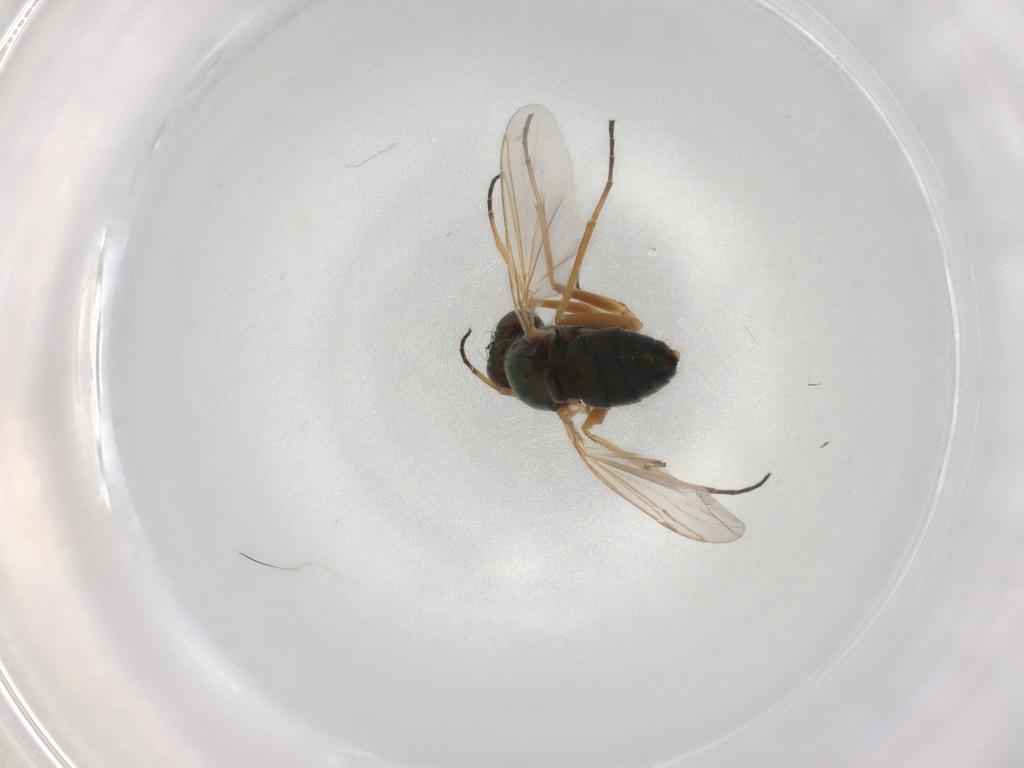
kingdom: Animalia
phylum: Arthropoda
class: Insecta
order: Diptera
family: Dolichopodidae
